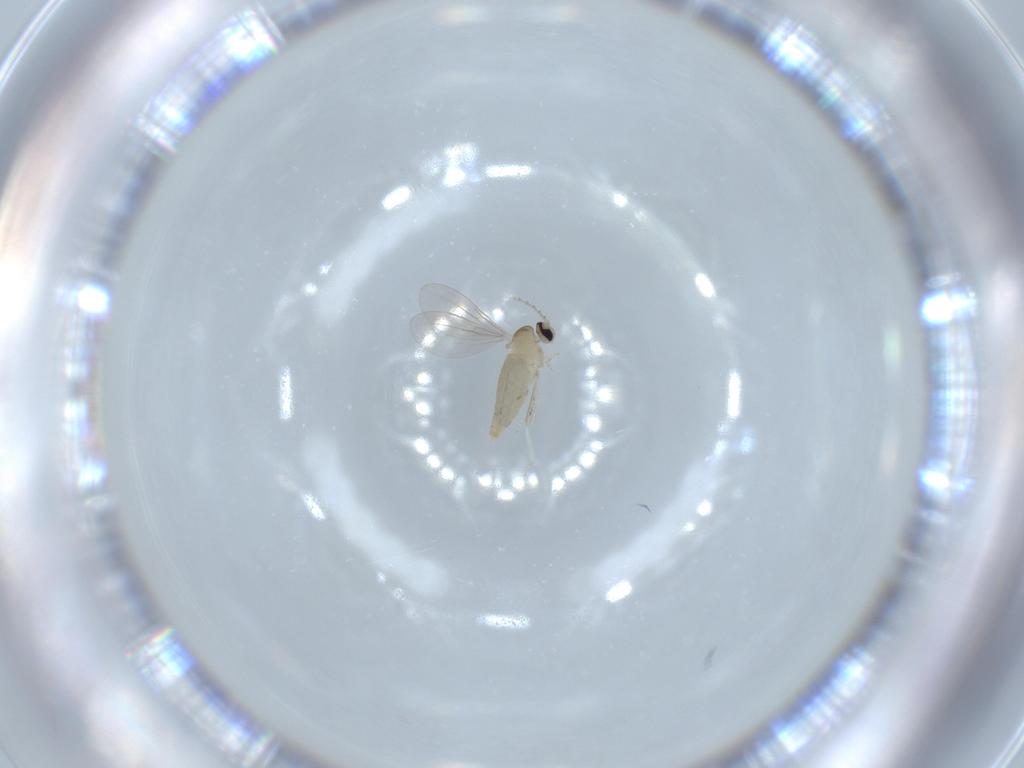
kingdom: Animalia
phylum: Arthropoda
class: Insecta
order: Diptera
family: Cecidomyiidae
